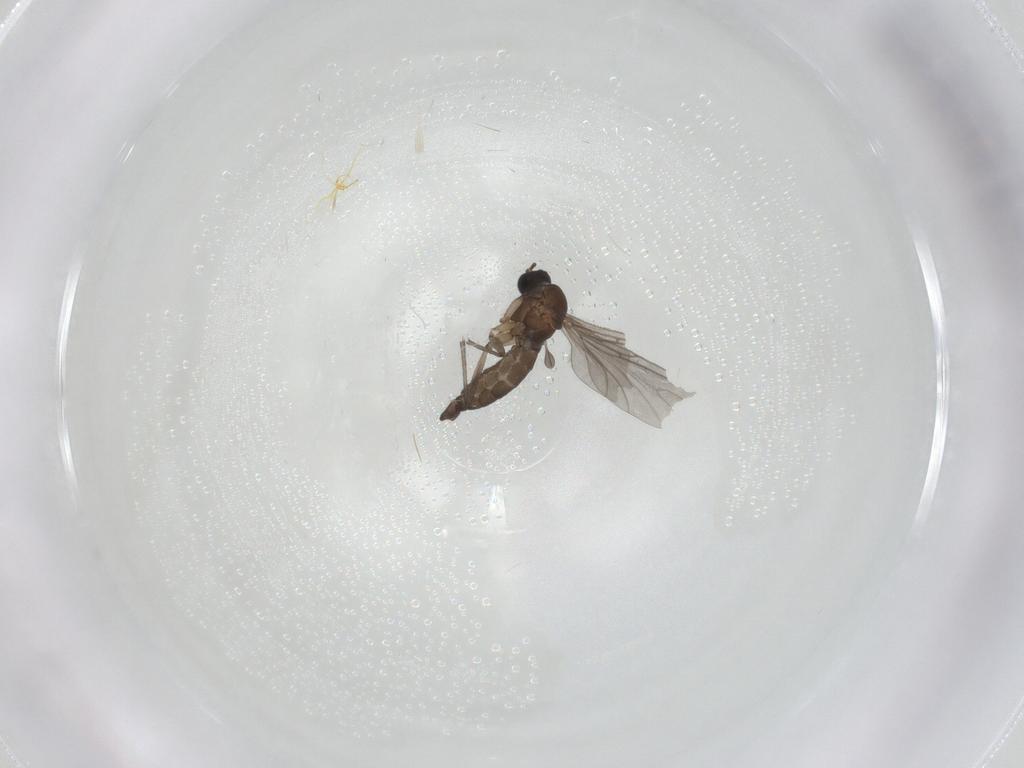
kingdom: Animalia
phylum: Arthropoda
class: Insecta
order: Diptera
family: Sciaridae
